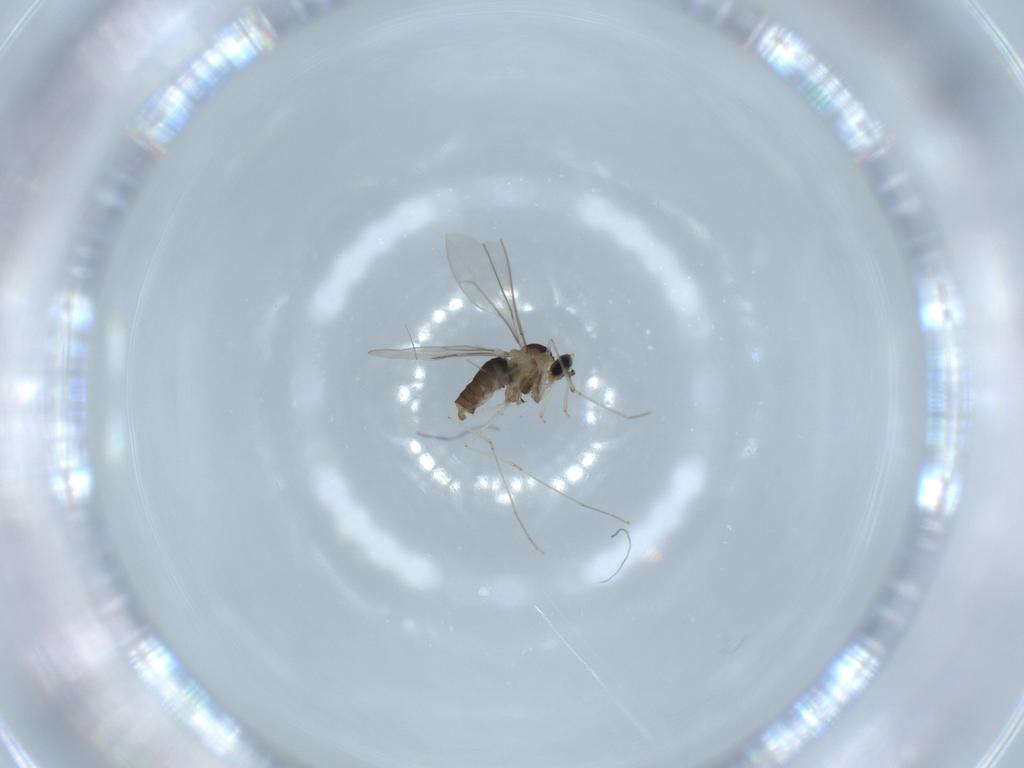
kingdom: Animalia
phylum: Arthropoda
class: Insecta
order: Diptera
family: Cecidomyiidae
